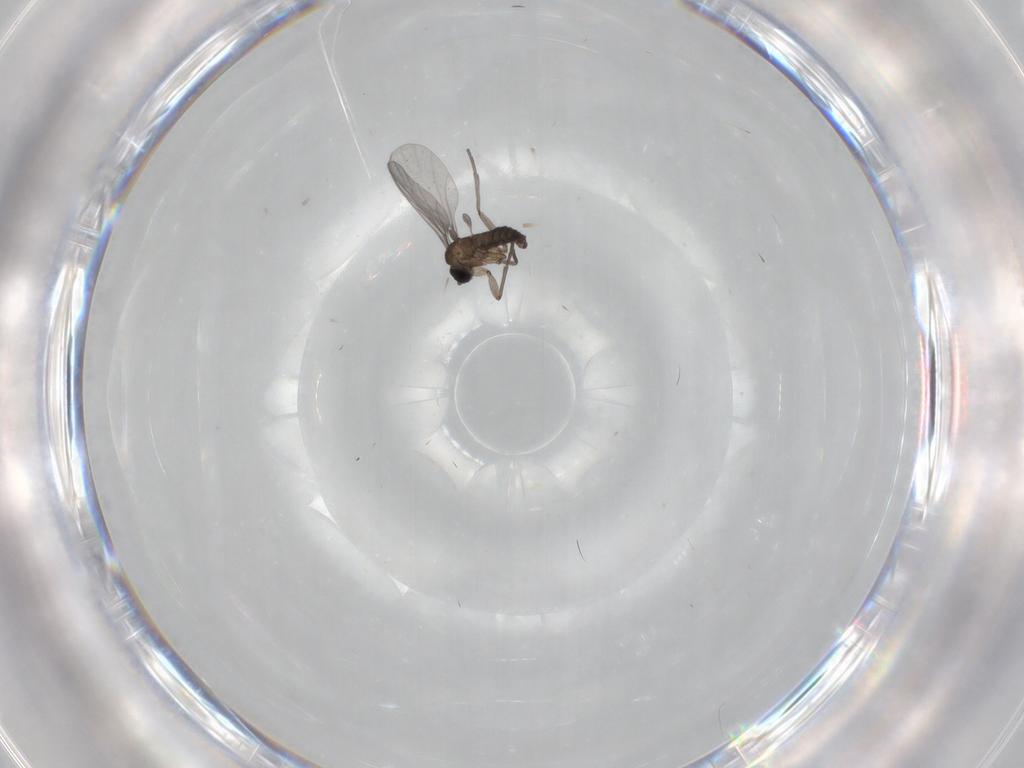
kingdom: Animalia
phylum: Arthropoda
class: Insecta
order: Diptera
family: Sciaridae
